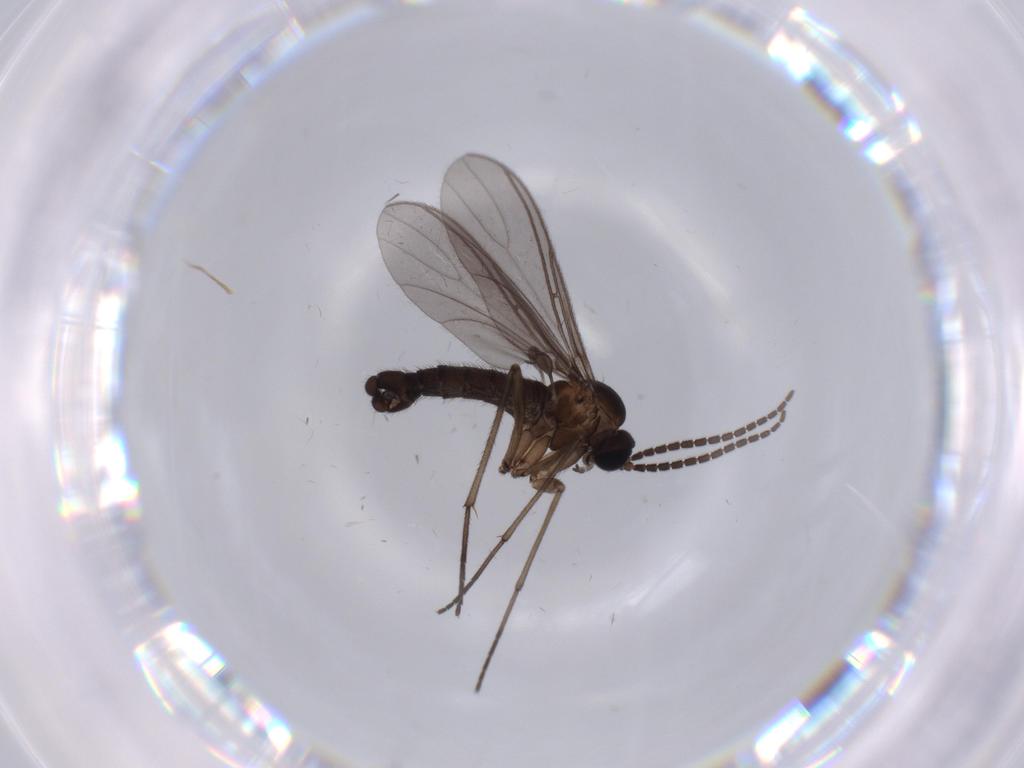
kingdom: Animalia
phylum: Arthropoda
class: Insecta
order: Diptera
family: Sciaridae
